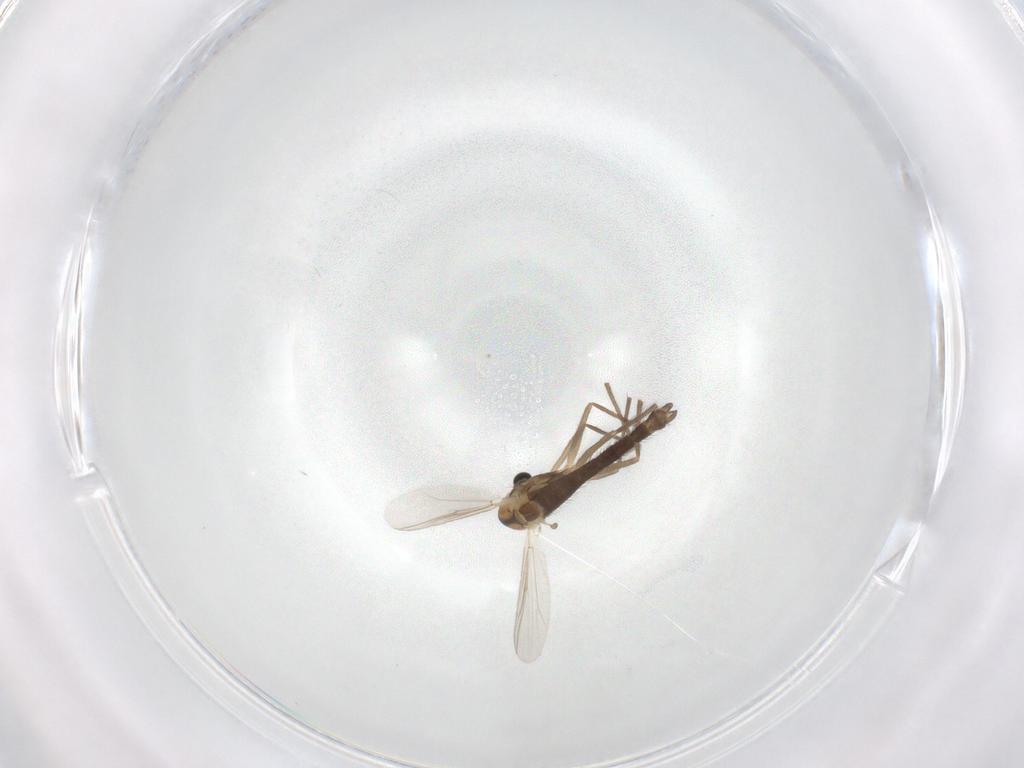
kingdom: Animalia
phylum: Arthropoda
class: Insecta
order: Diptera
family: Chironomidae
